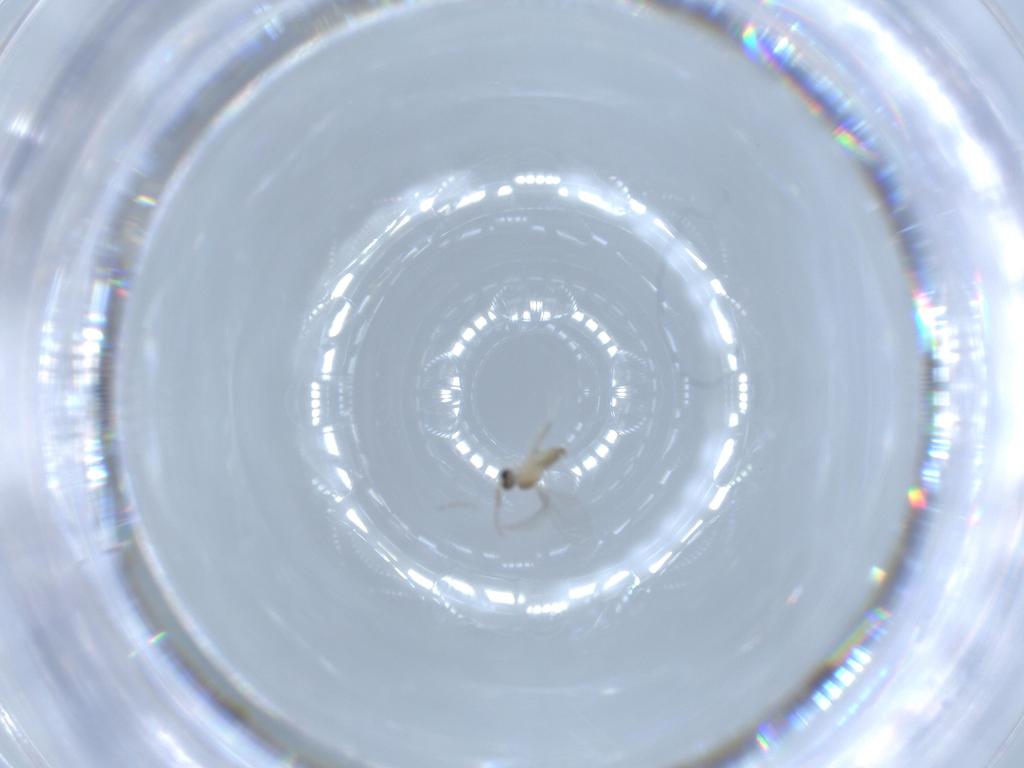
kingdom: Animalia
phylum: Arthropoda
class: Insecta
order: Diptera
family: Cecidomyiidae
